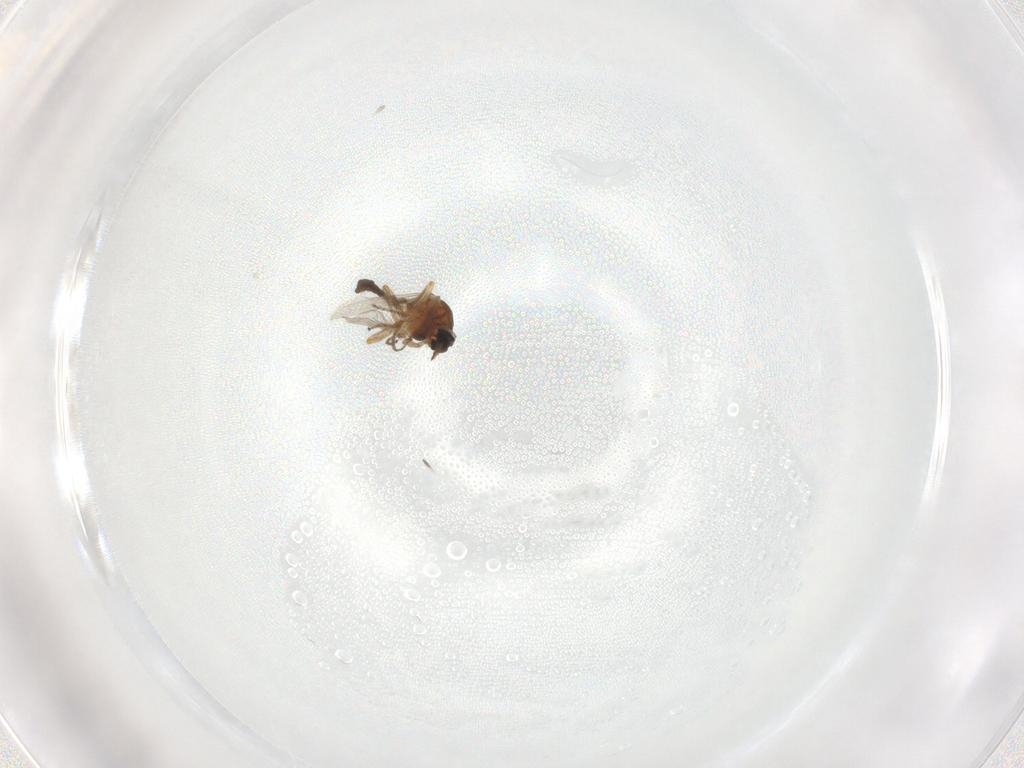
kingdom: Animalia
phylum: Arthropoda
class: Insecta
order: Diptera
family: Ceratopogonidae
